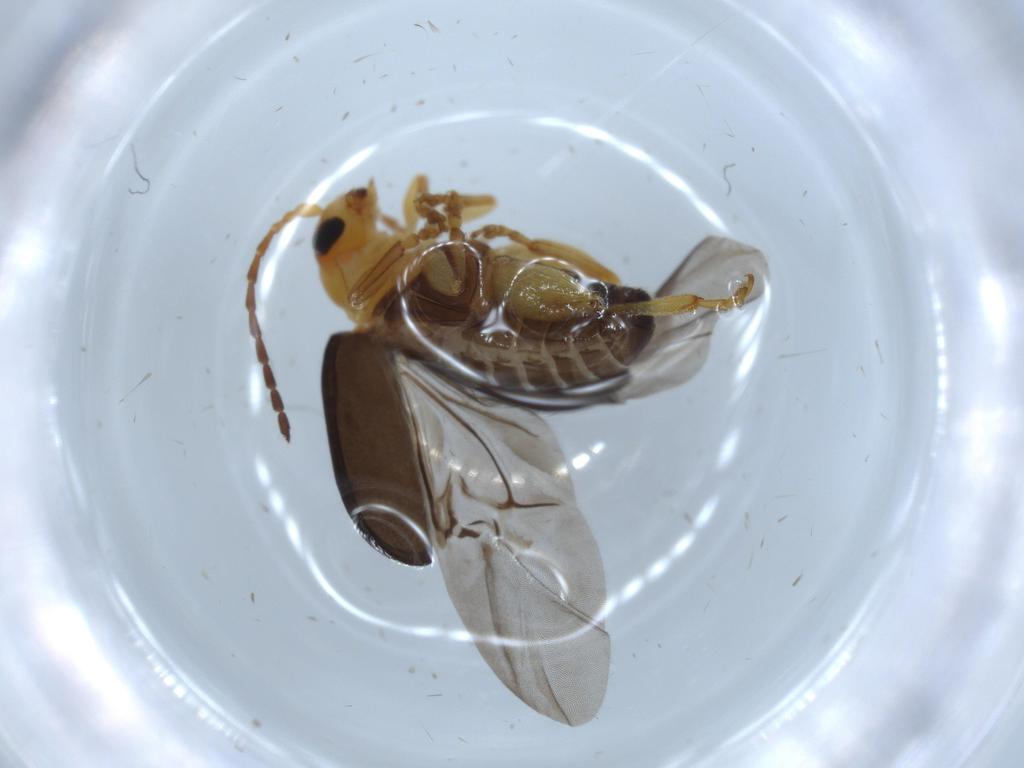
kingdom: Animalia
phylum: Arthropoda
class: Insecta
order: Coleoptera
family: Chrysomelidae
